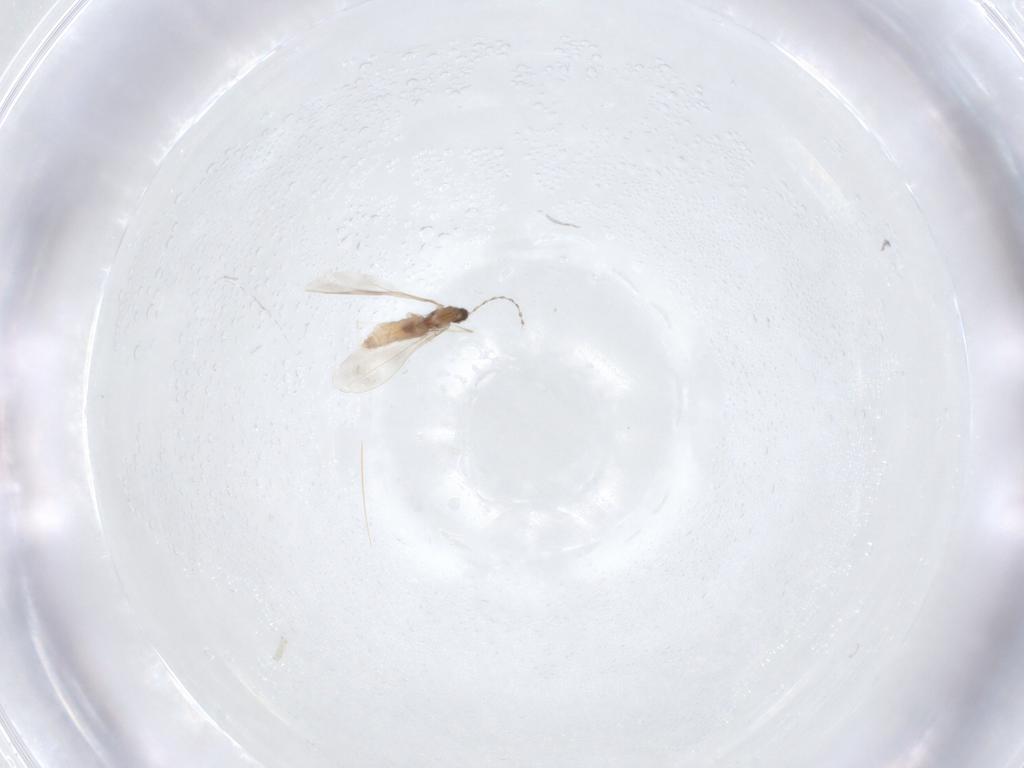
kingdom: Animalia
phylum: Arthropoda
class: Insecta
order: Diptera
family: Cecidomyiidae
